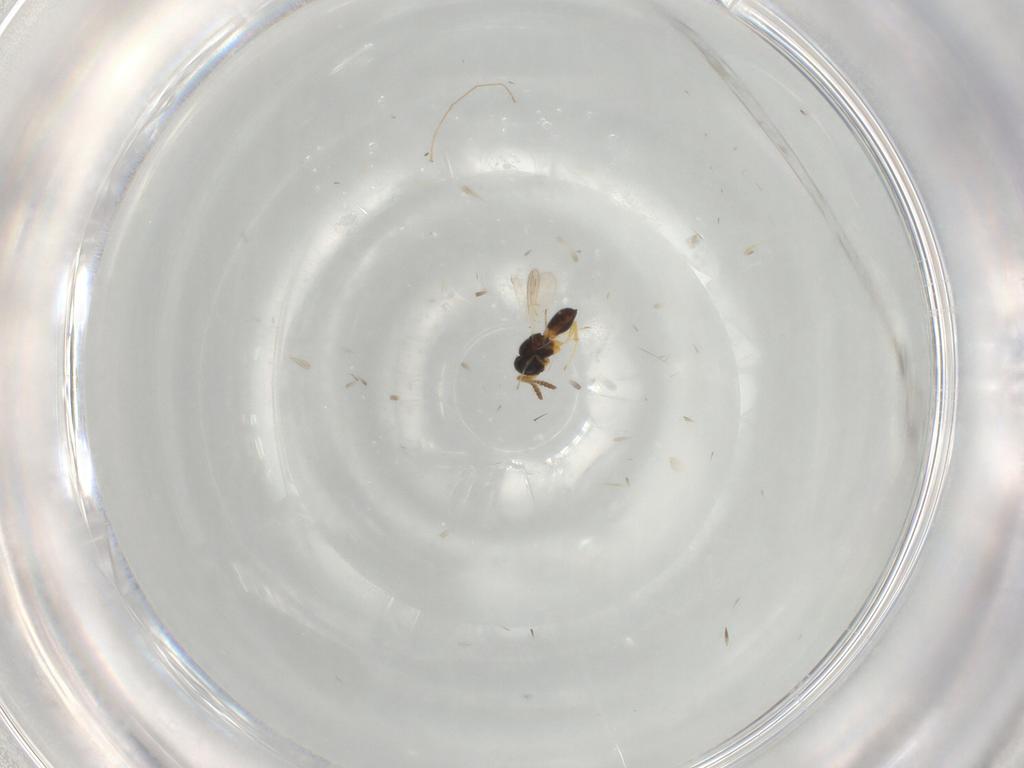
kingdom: Animalia
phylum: Arthropoda
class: Insecta
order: Hymenoptera
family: Scelionidae
